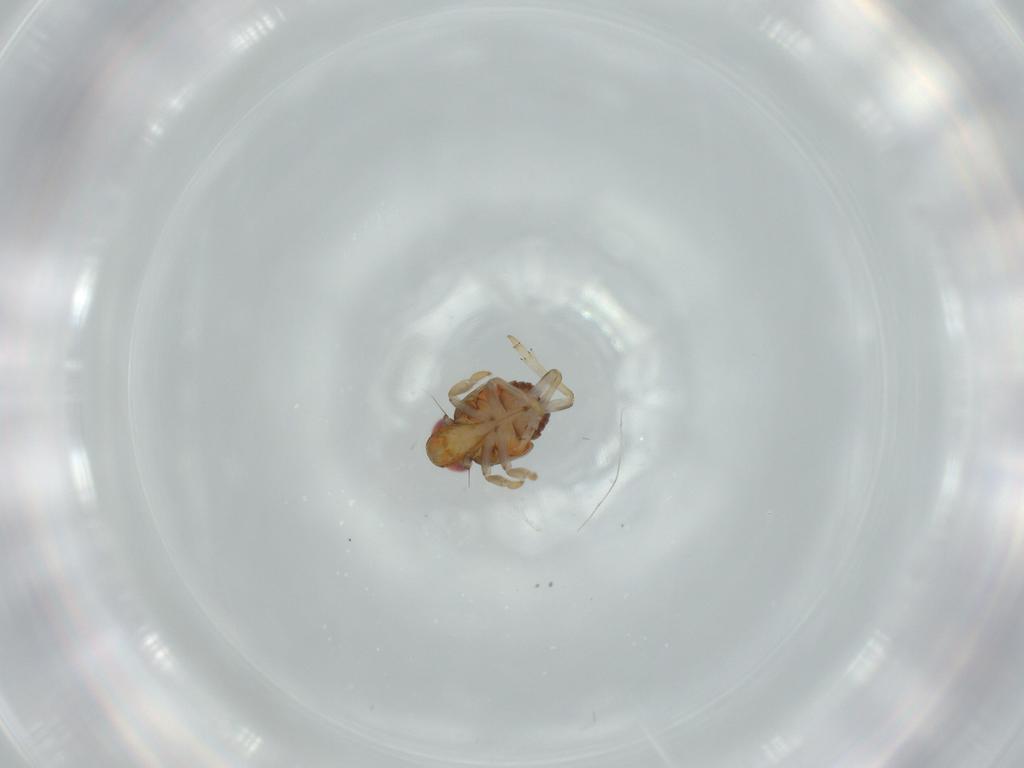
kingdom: Animalia
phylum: Arthropoda
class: Insecta
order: Hemiptera
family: Issidae
